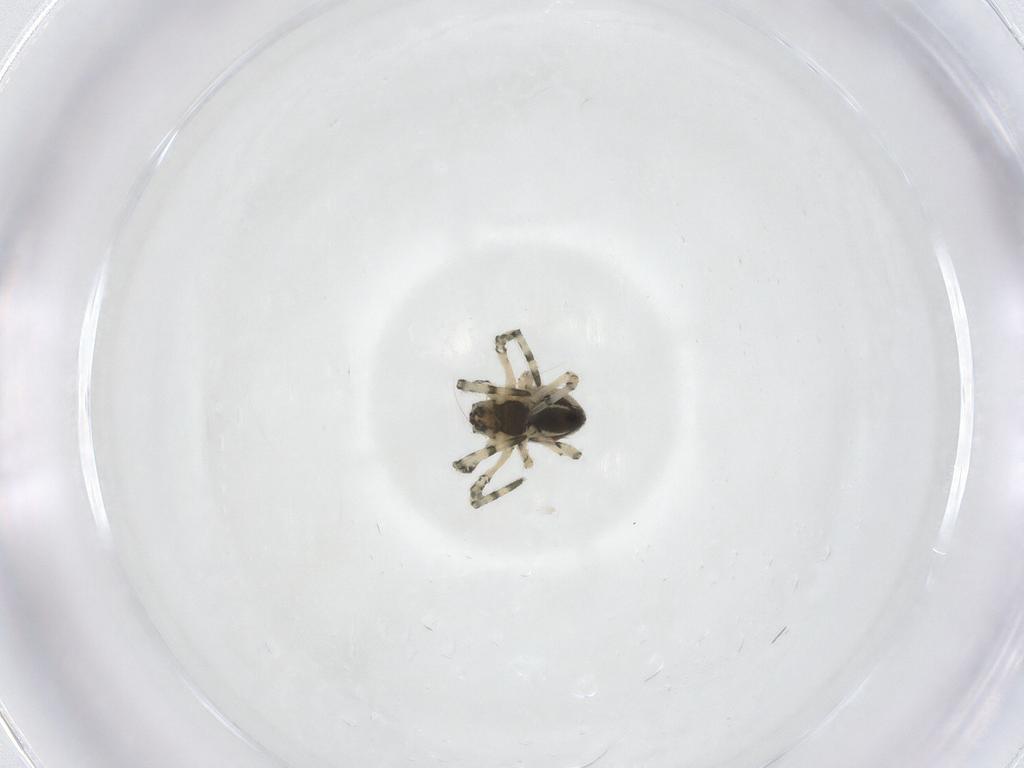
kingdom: Animalia
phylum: Arthropoda
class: Arachnida
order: Araneae
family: Tetragnathidae
